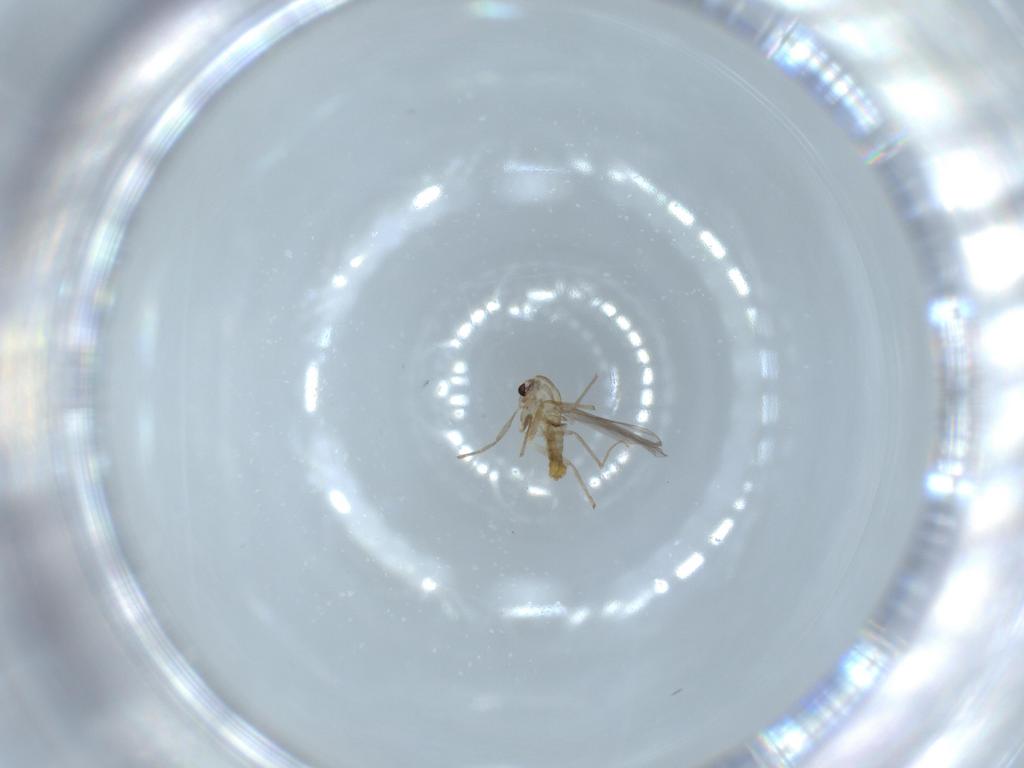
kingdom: Animalia
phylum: Arthropoda
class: Insecta
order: Diptera
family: Chironomidae
